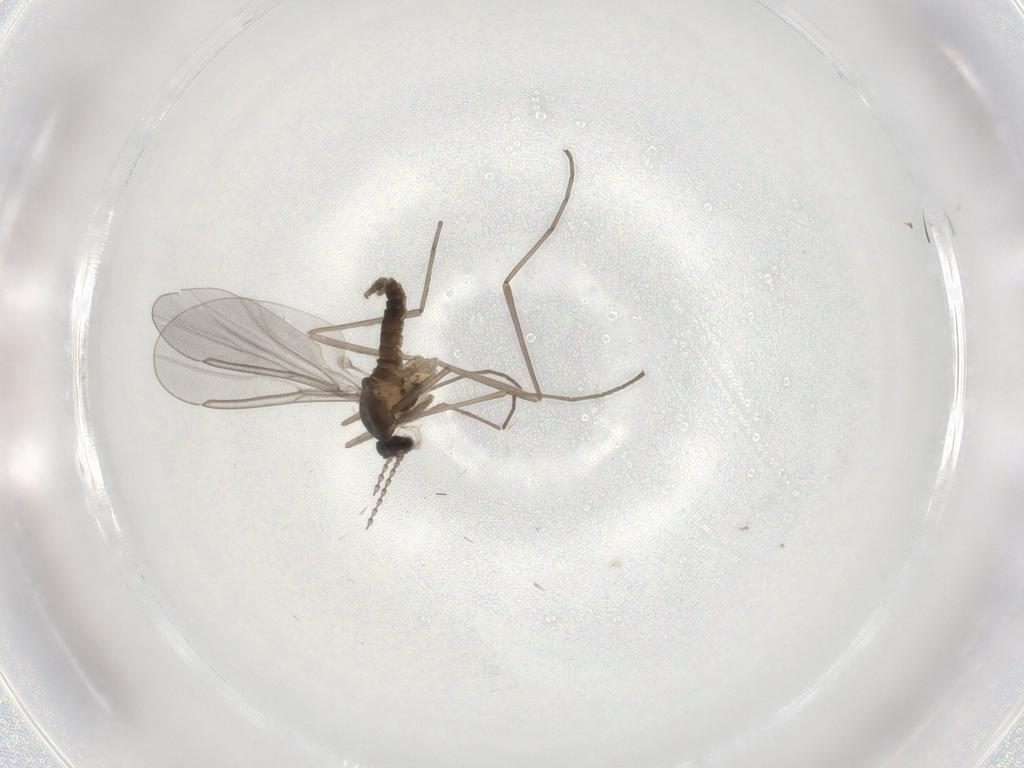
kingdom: Animalia
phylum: Arthropoda
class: Insecta
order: Diptera
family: Cecidomyiidae
